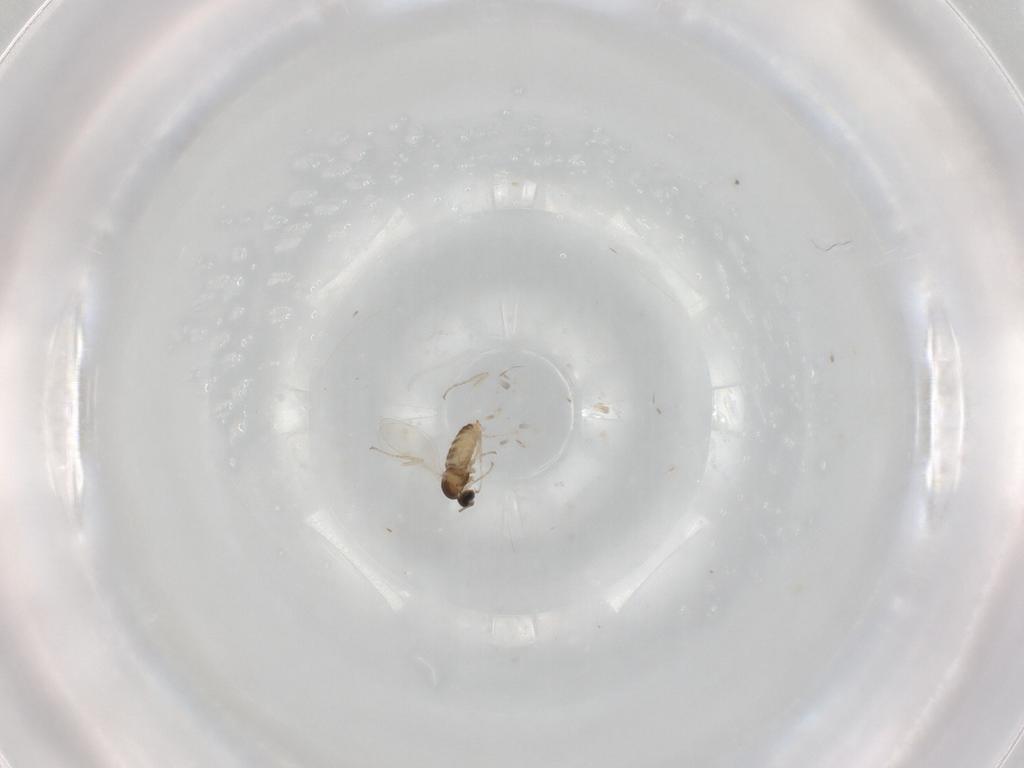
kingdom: Animalia
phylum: Arthropoda
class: Insecta
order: Diptera
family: Cecidomyiidae
